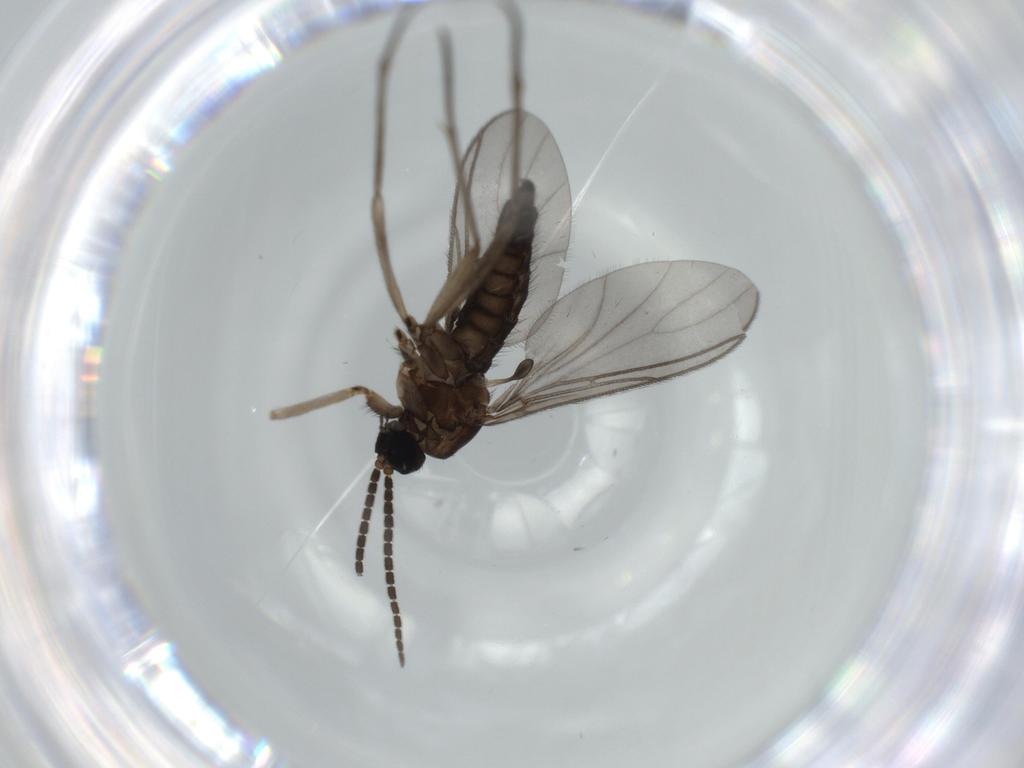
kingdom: Animalia
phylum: Arthropoda
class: Insecta
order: Diptera
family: Sciaridae
